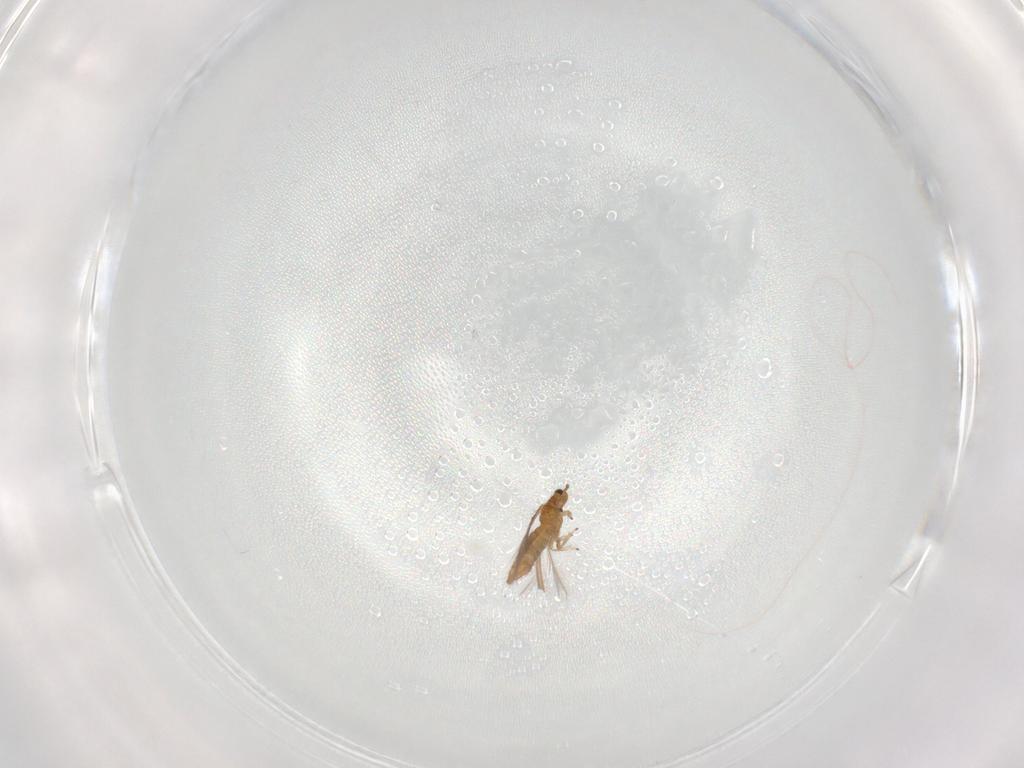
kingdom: Animalia
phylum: Arthropoda
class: Insecta
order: Thysanoptera
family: Thripidae
